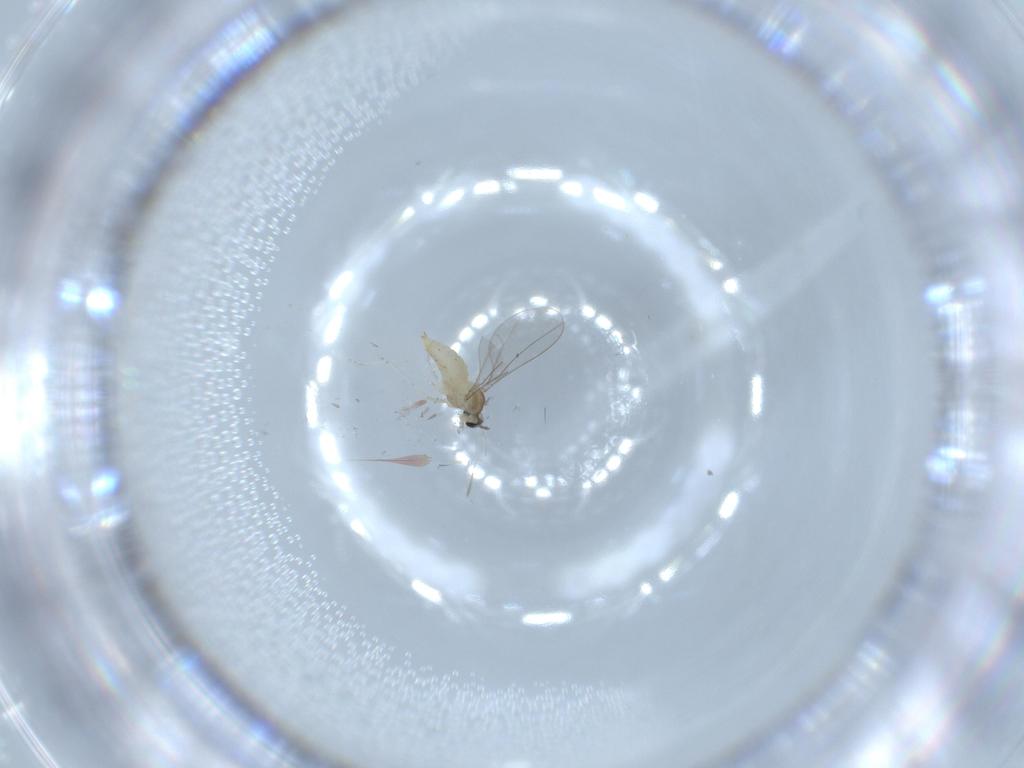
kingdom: Animalia
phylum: Arthropoda
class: Insecta
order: Diptera
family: Cecidomyiidae
